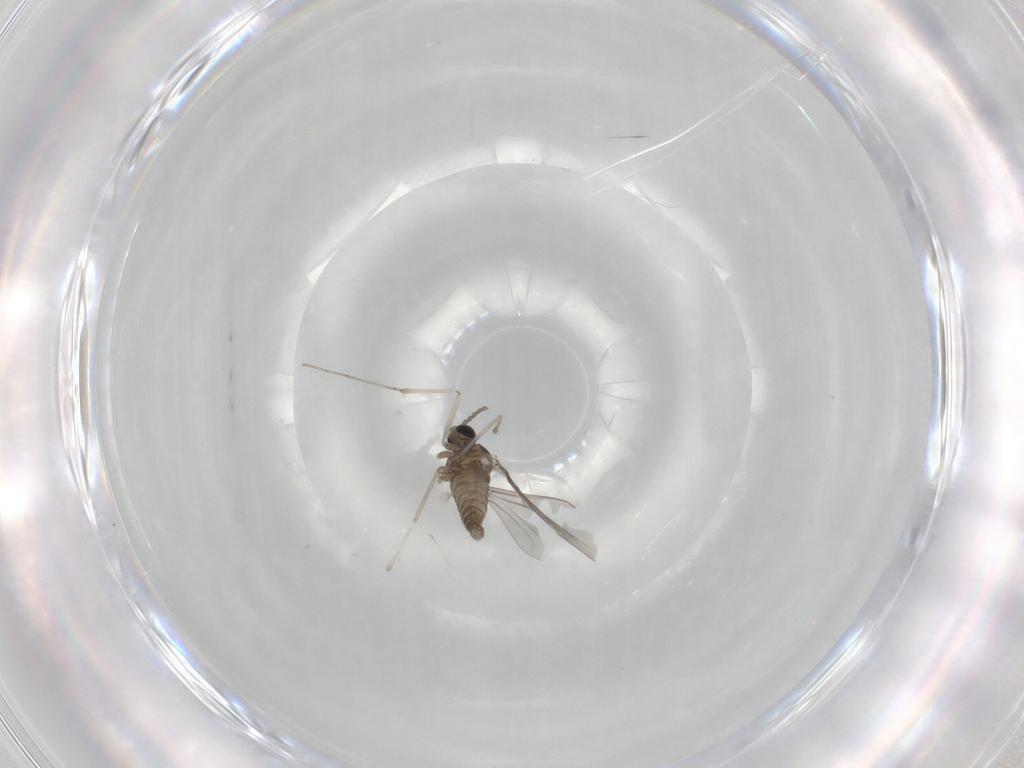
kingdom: Animalia
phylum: Arthropoda
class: Insecta
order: Diptera
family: Cecidomyiidae
